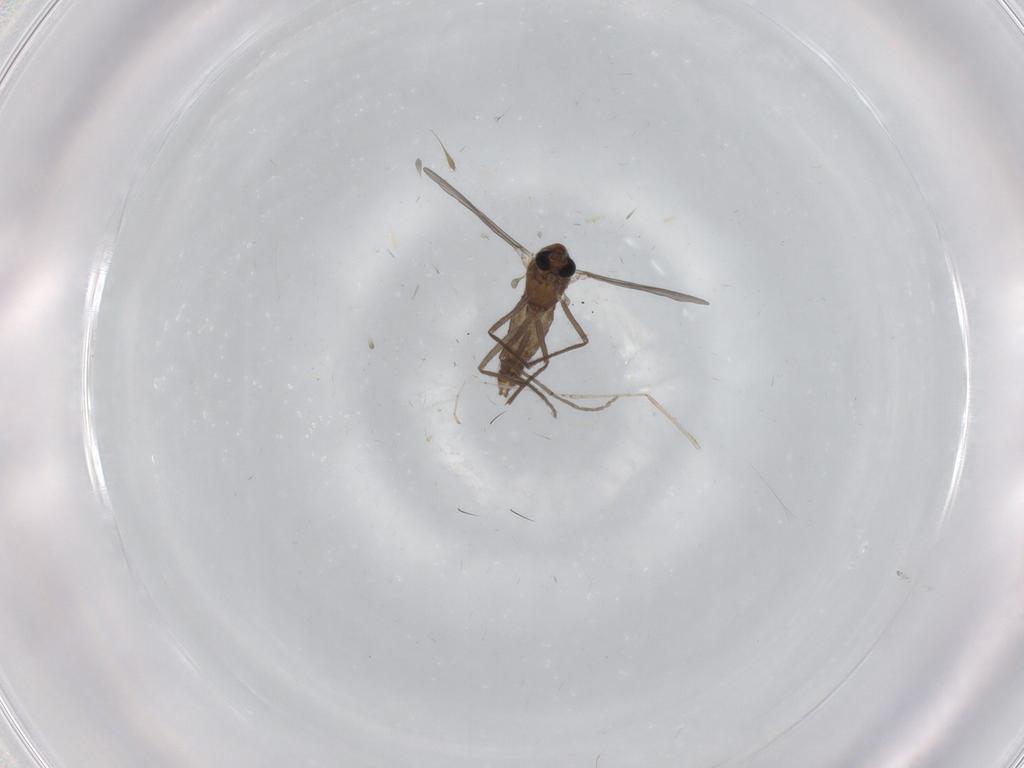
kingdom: Animalia
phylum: Arthropoda
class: Insecta
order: Diptera
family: Chironomidae
